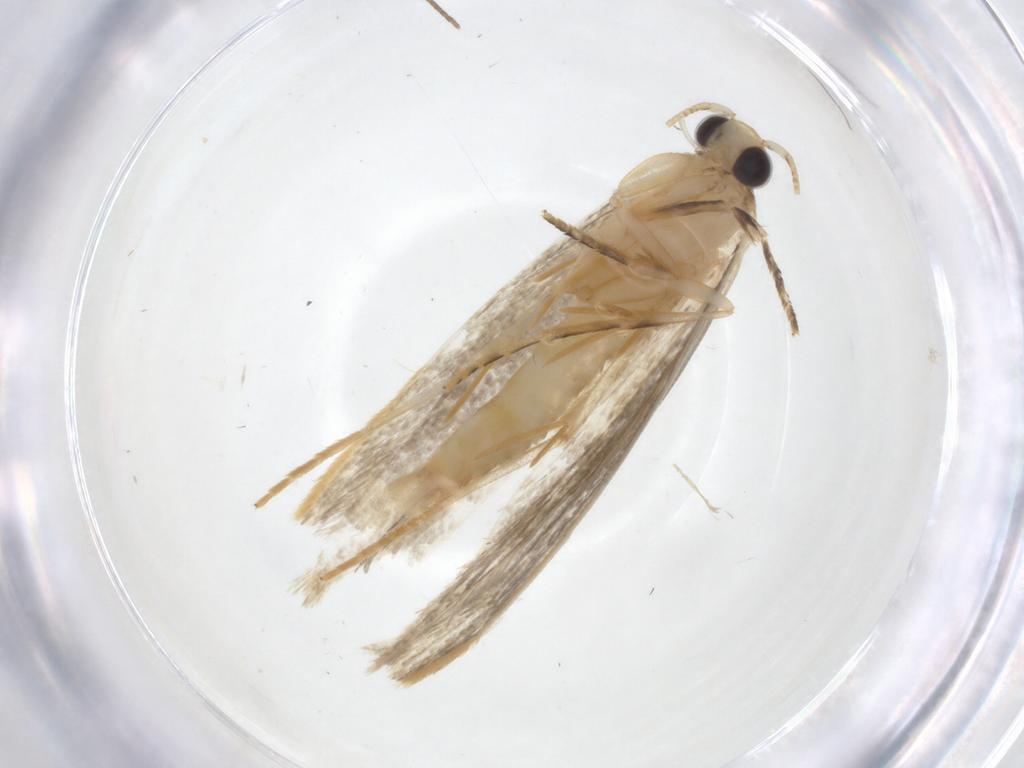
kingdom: Animalia
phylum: Arthropoda
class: Insecta
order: Lepidoptera
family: Tineidae
